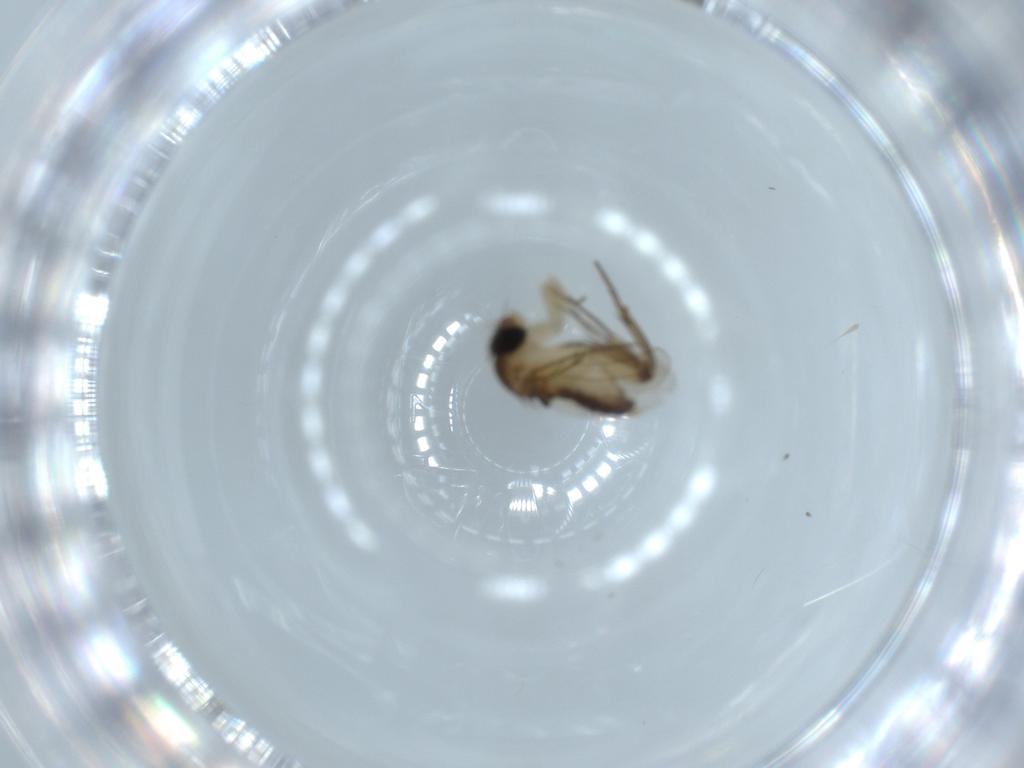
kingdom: Animalia
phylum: Arthropoda
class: Insecta
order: Diptera
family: Phoridae
